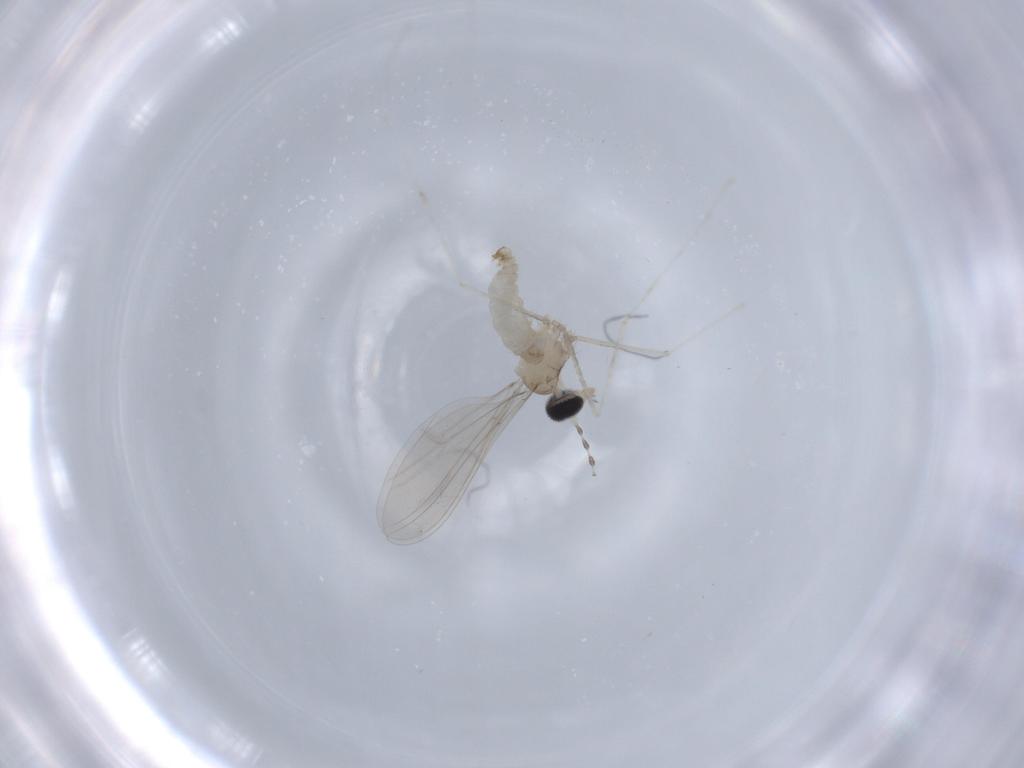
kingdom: Animalia
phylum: Arthropoda
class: Insecta
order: Diptera
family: Cecidomyiidae
